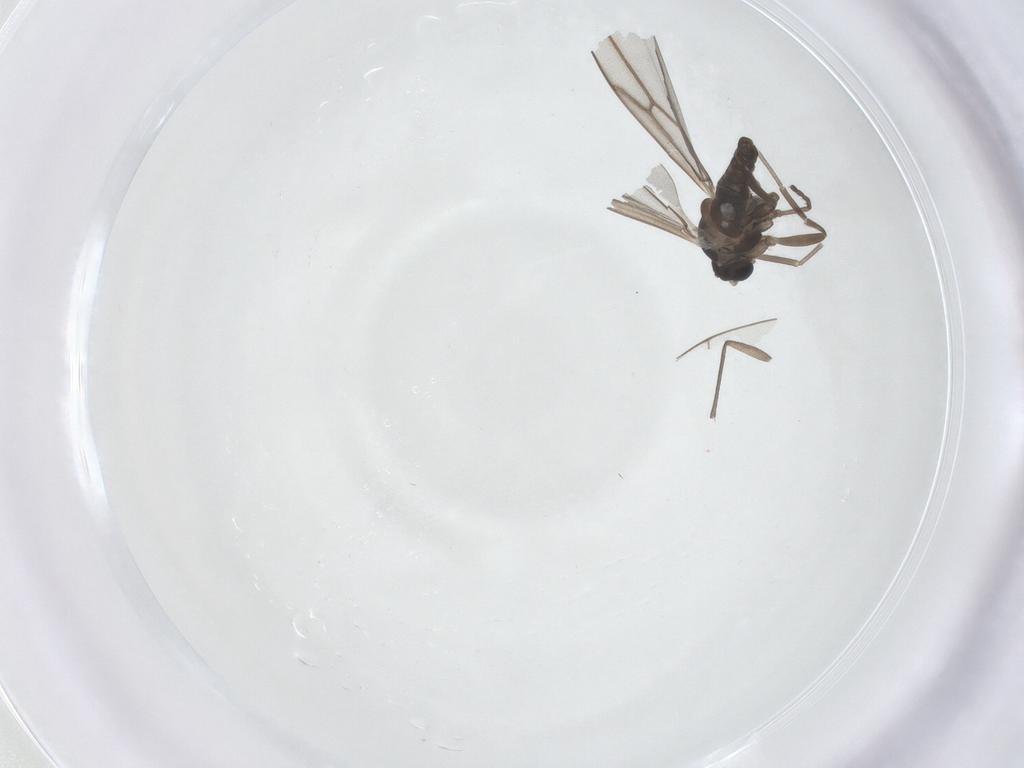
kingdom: Animalia
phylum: Arthropoda
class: Insecta
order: Diptera
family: Cecidomyiidae
